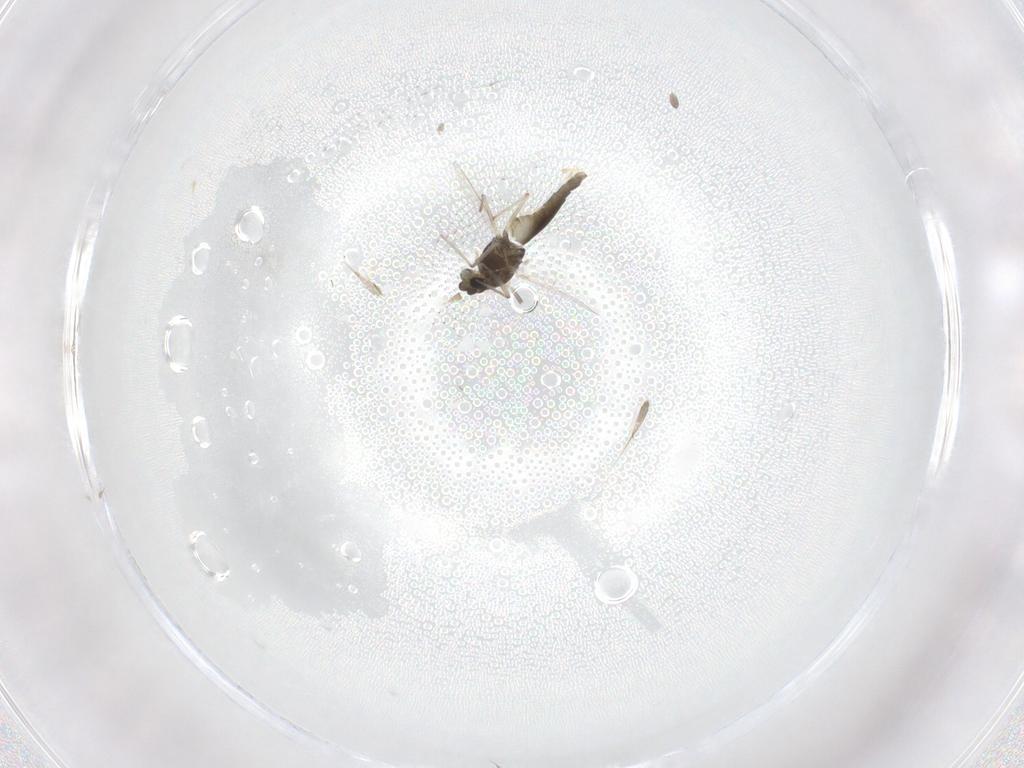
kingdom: Animalia
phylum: Arthropoda
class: Insecta
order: Diptera
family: Chironomidae
